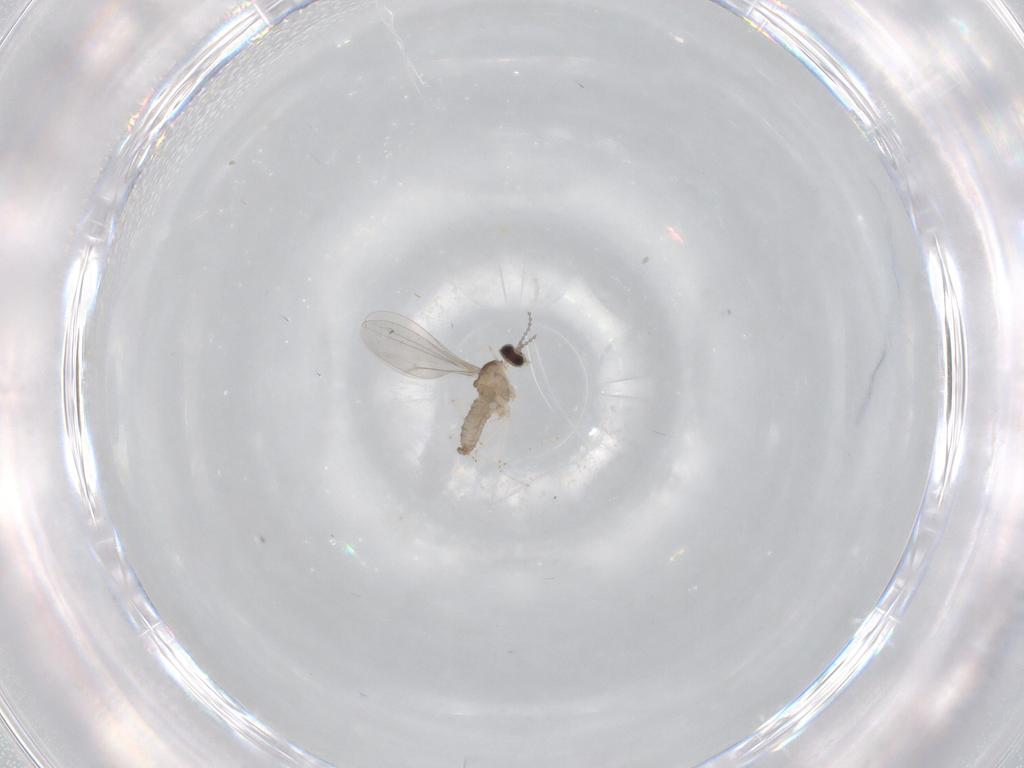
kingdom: Animalia
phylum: Arthropoda
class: Insecta
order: Diptera
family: Cecidomyiidae
